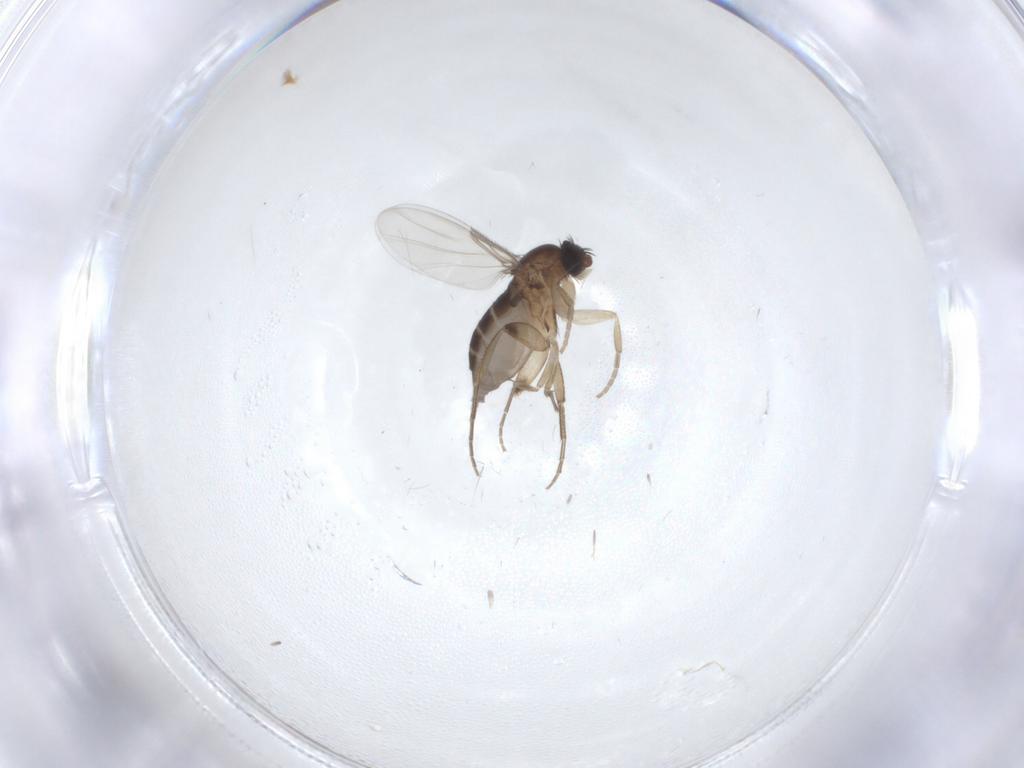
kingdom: Animalia
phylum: Arthropoda
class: Insecta
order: Diptera
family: Phoridae
